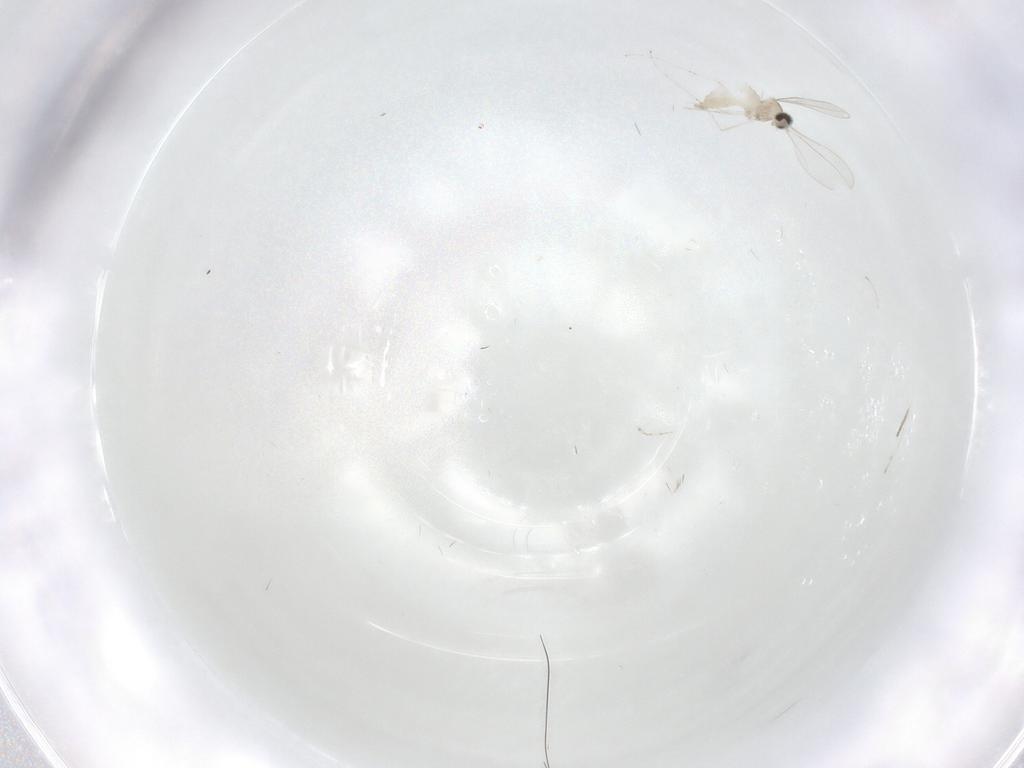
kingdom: Animalia
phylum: Arthropoda
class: Insecta
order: Diptera
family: Cecidomyiidae
